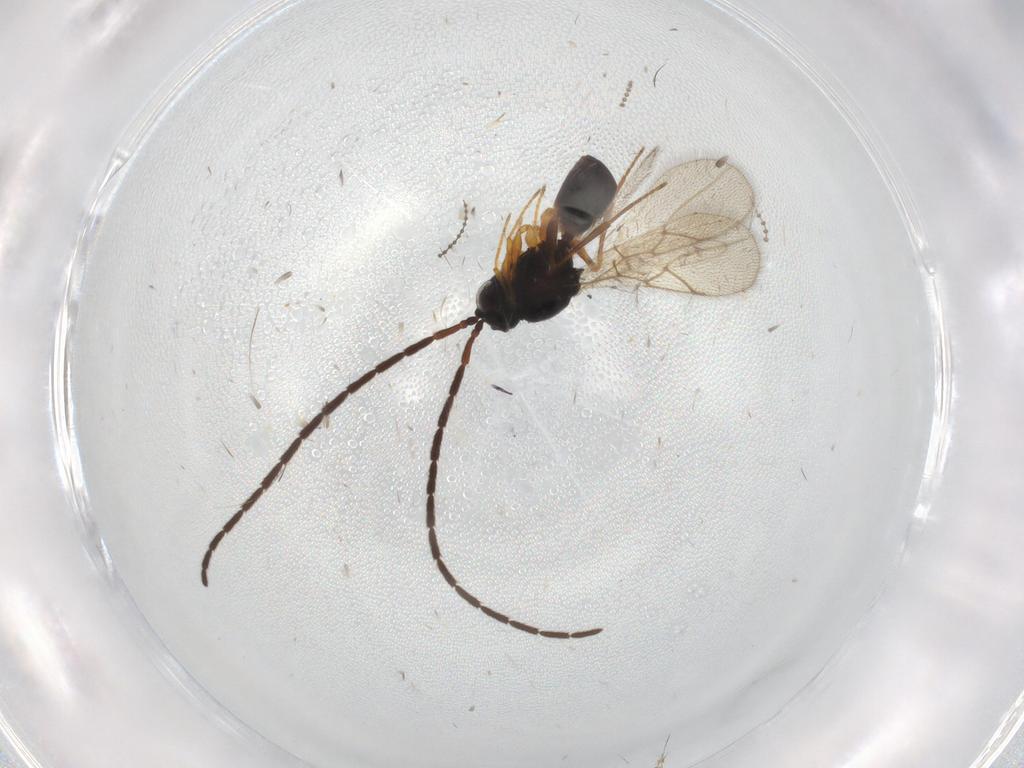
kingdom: Animalia
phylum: Arthropoda
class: Insecta
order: Hymenoptera
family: Figitidae
